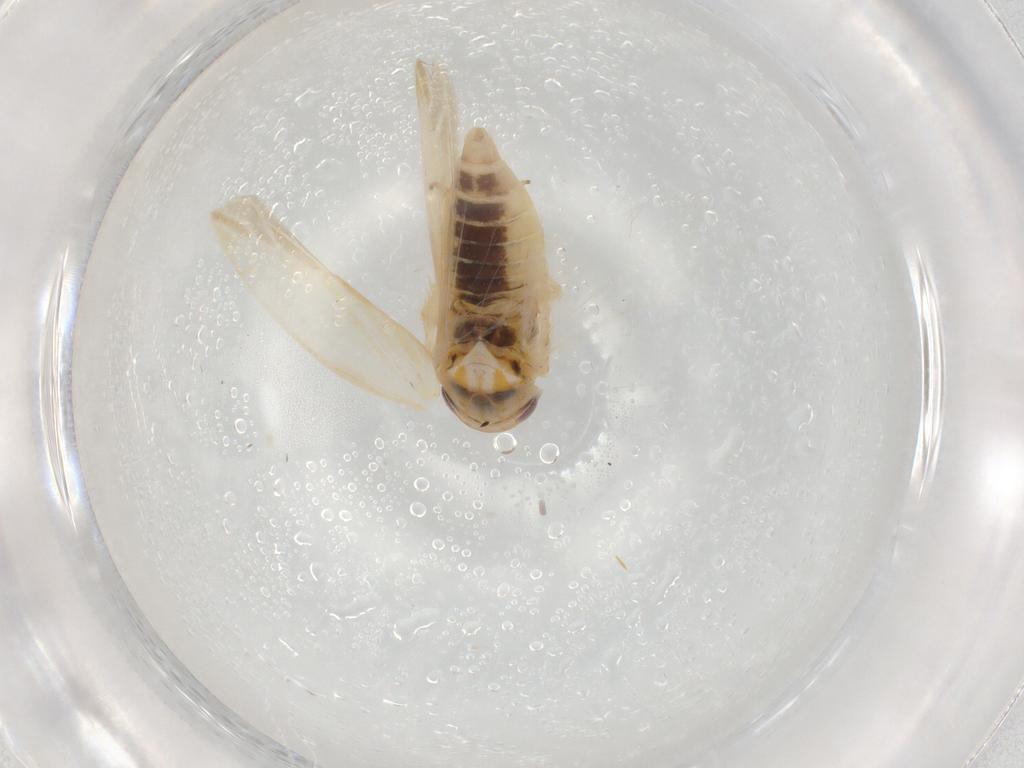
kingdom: Animalia
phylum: Arthropoda
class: Insecta
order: Hemiptera
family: Cicadellidae
